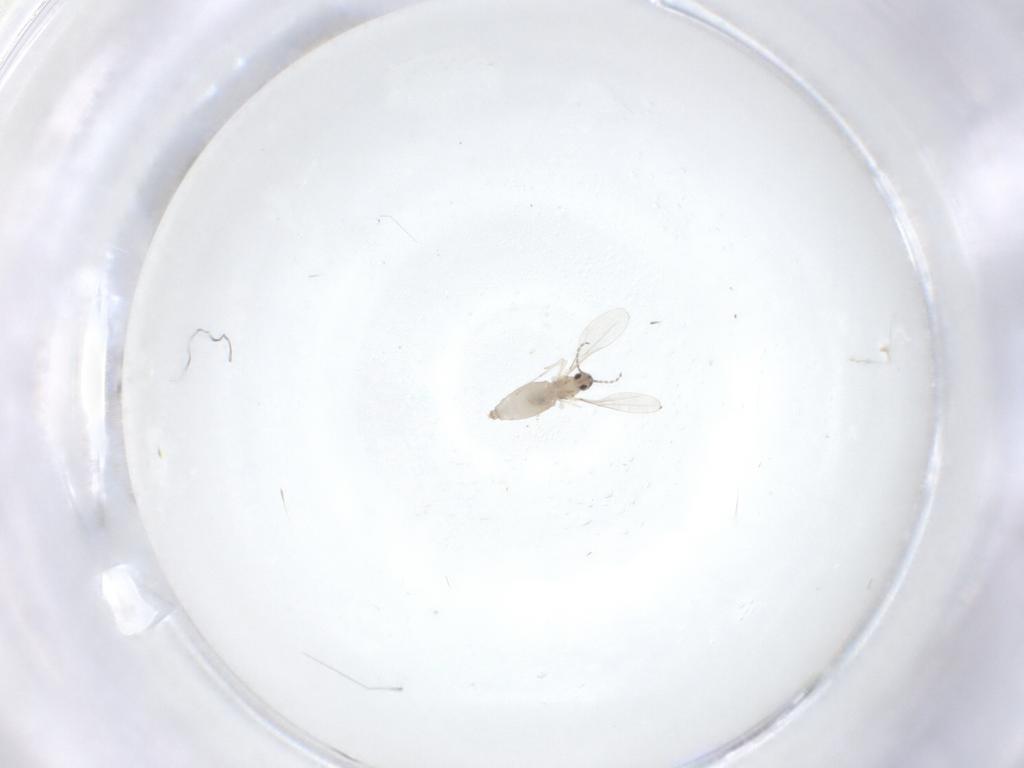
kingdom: Animalia
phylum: Arthropoda
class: Insecta
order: Diptera
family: Cecidomyiidae
